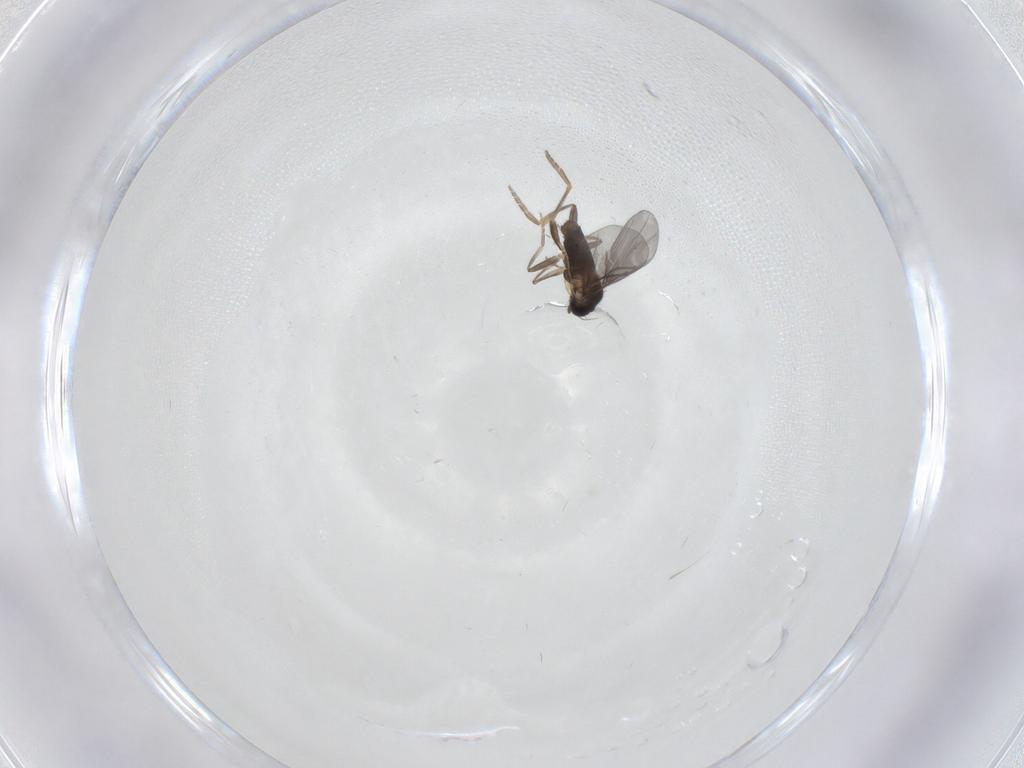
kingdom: Animalia
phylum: Arthropoda
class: Insecta
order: Diptera
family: Phoridae
